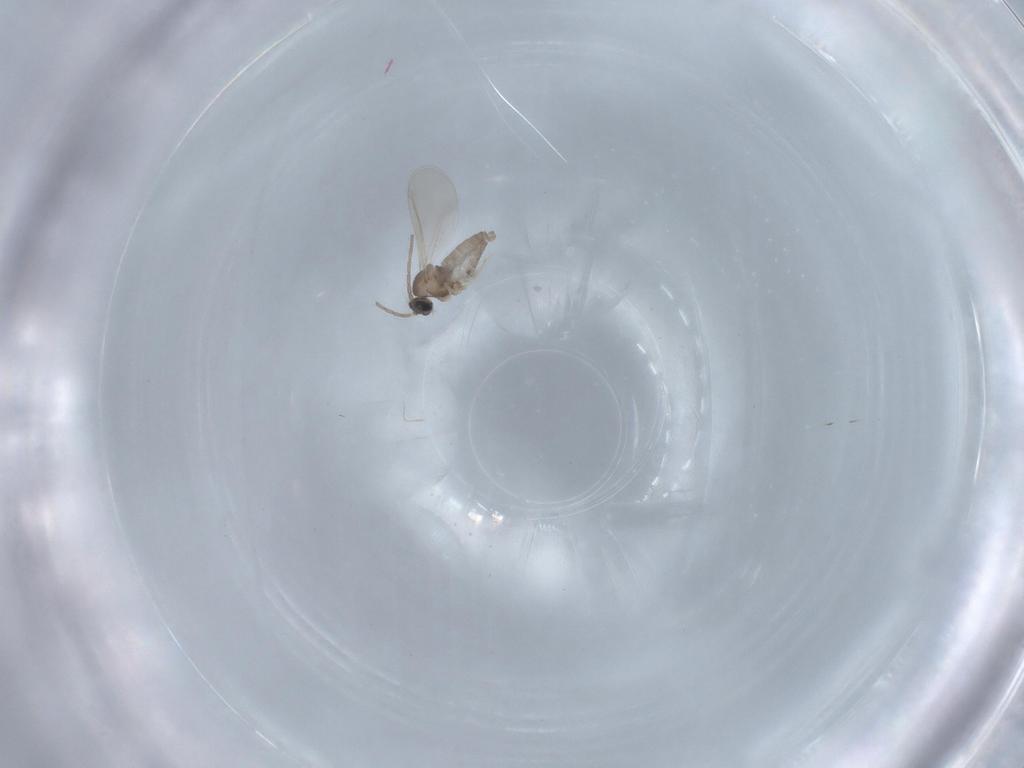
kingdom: Animalia
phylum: Arthropoda
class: Insecta
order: Diptera
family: Cecidomyiidae
